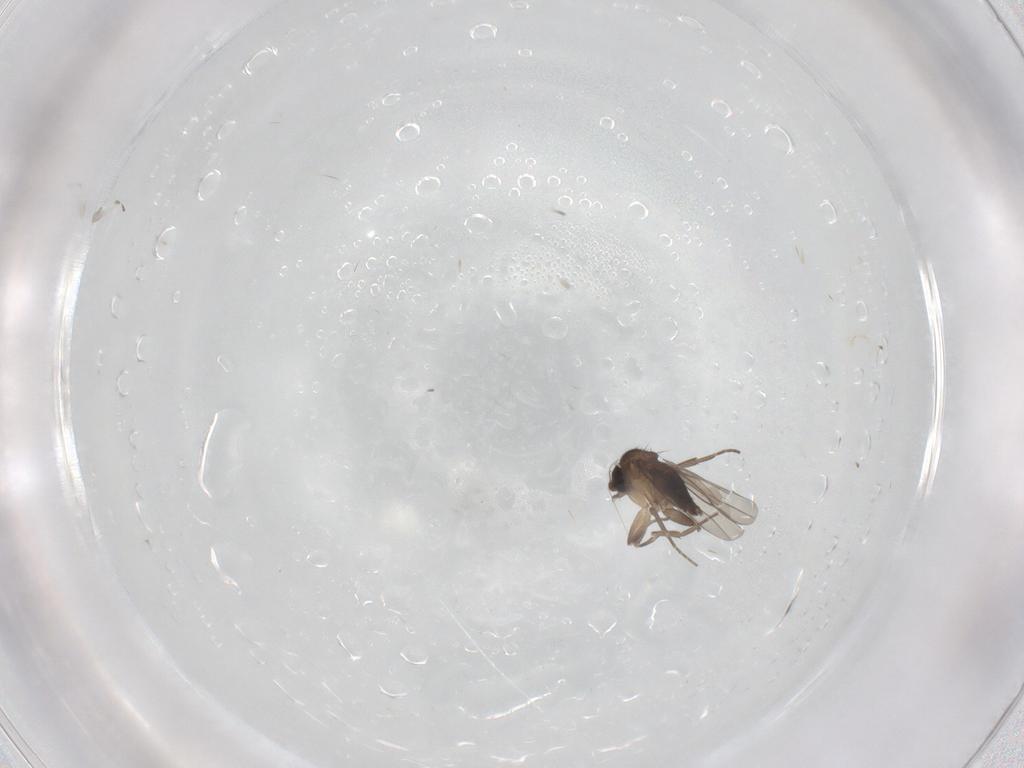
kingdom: Animalia
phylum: Arthropoda
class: Insecta
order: Diptera
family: Phoridae
